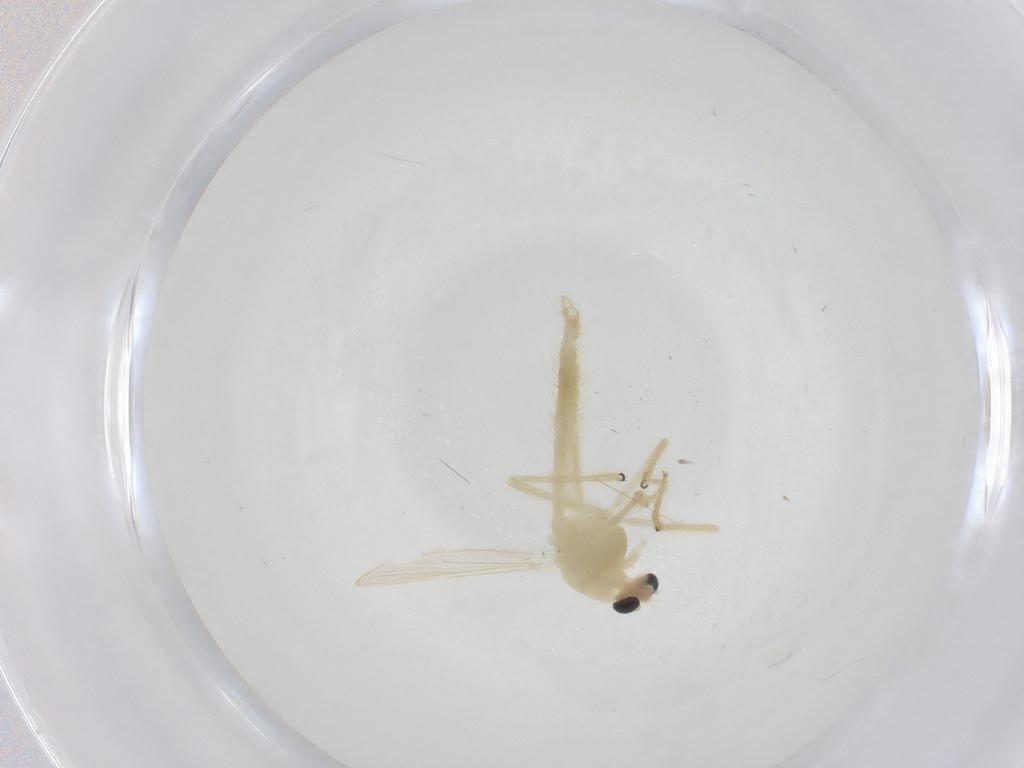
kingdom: Animalia
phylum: Arthropoda
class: Insecta
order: Diptera
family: Chironomidae
